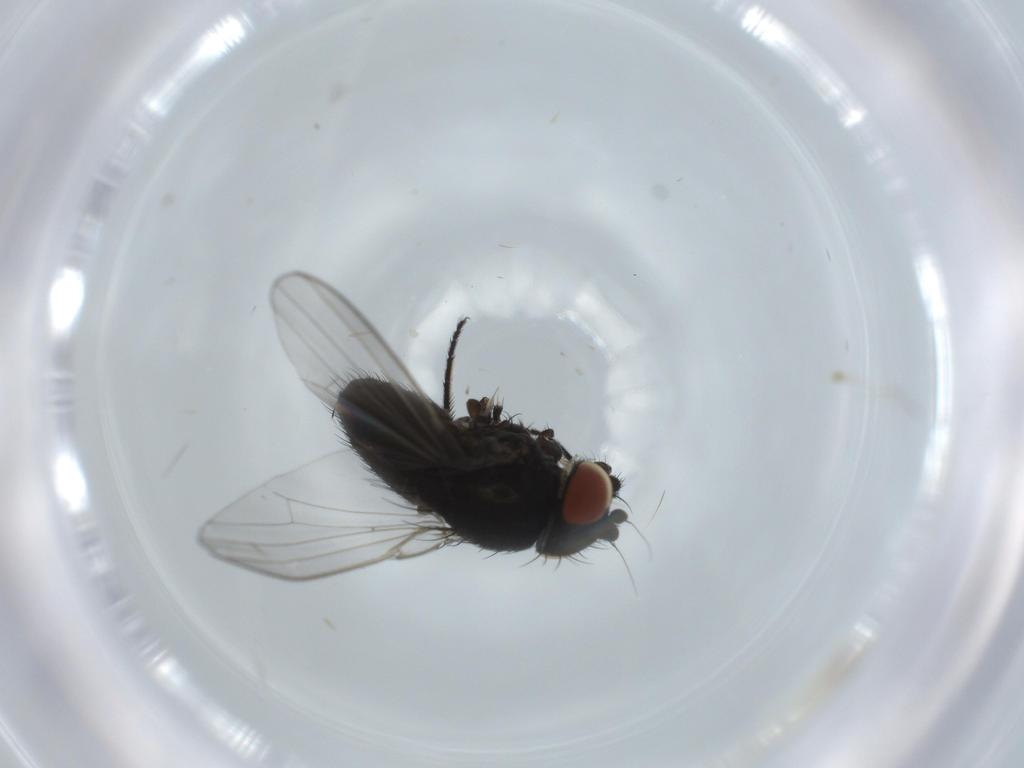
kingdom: Animalia
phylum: Arthropoda
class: Insecta
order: Diptera
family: Milichiidae
